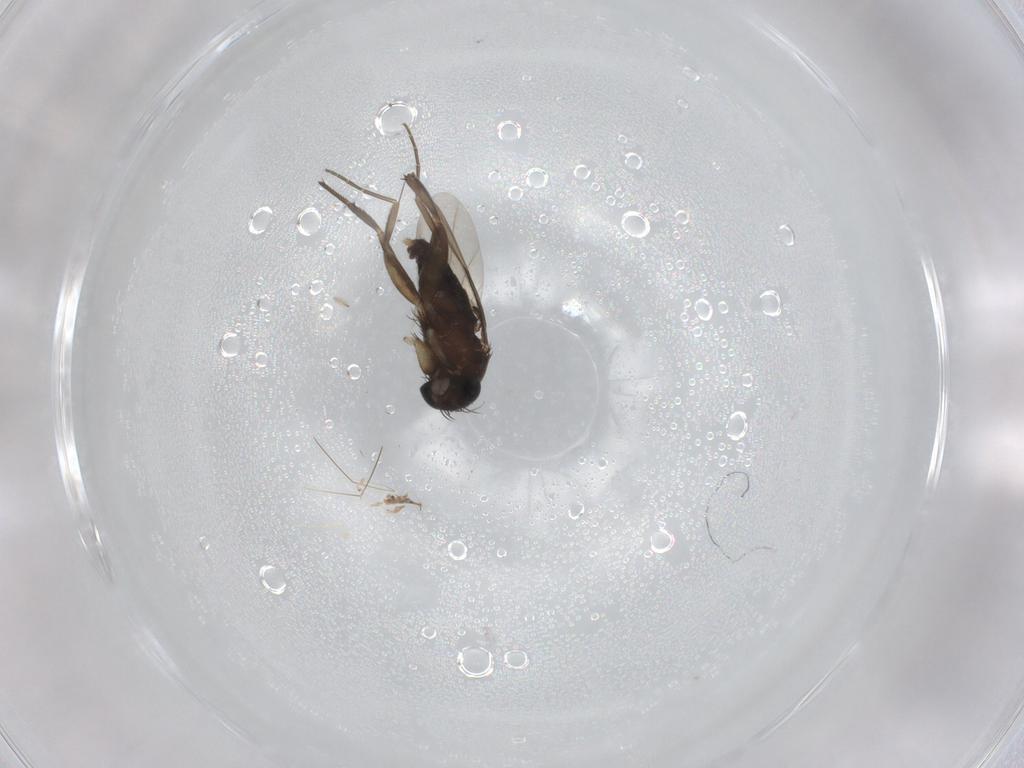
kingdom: Animalia
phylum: Arthropoda
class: Insecta
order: Diptera
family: Phoridae
